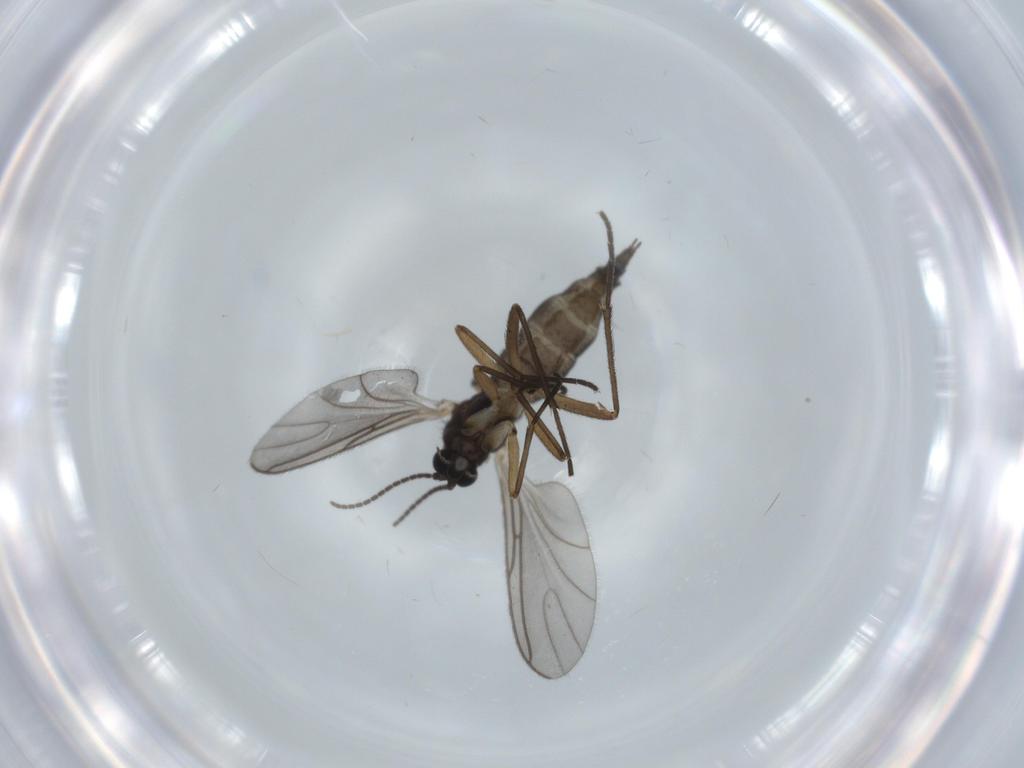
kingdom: Animalia
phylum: Arthropoda
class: Insecta
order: Diptera
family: Sciaridae
